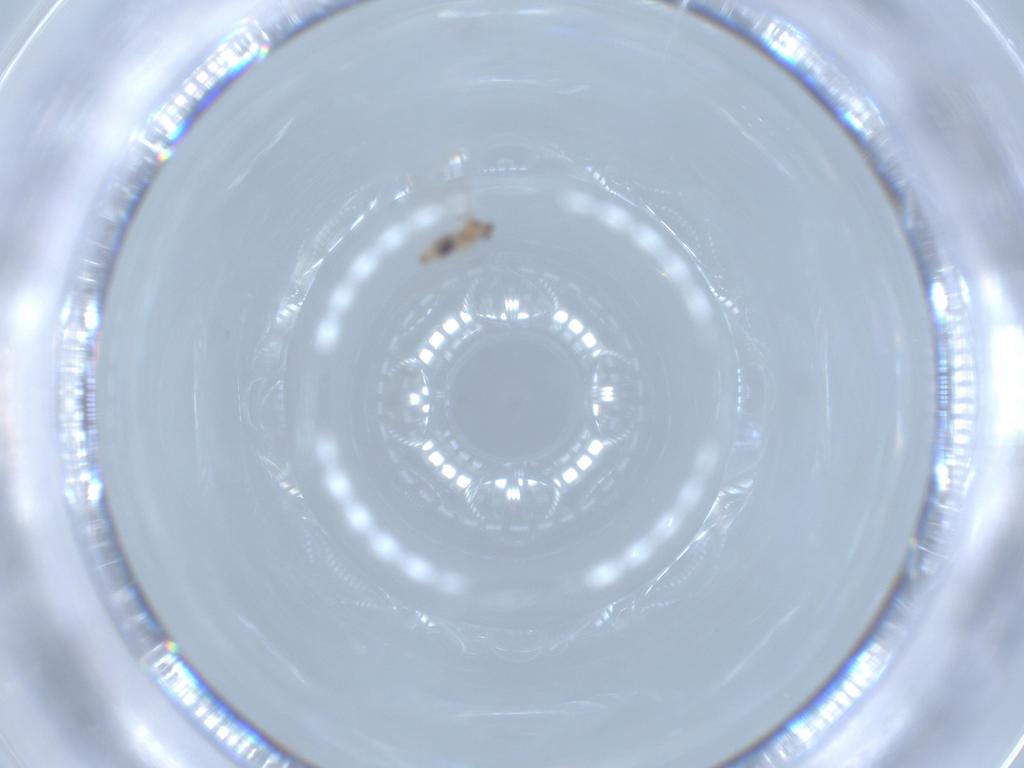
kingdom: Animalia
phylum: Arthropoda
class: Insecta
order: Diptera
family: Cecidomyiidae
